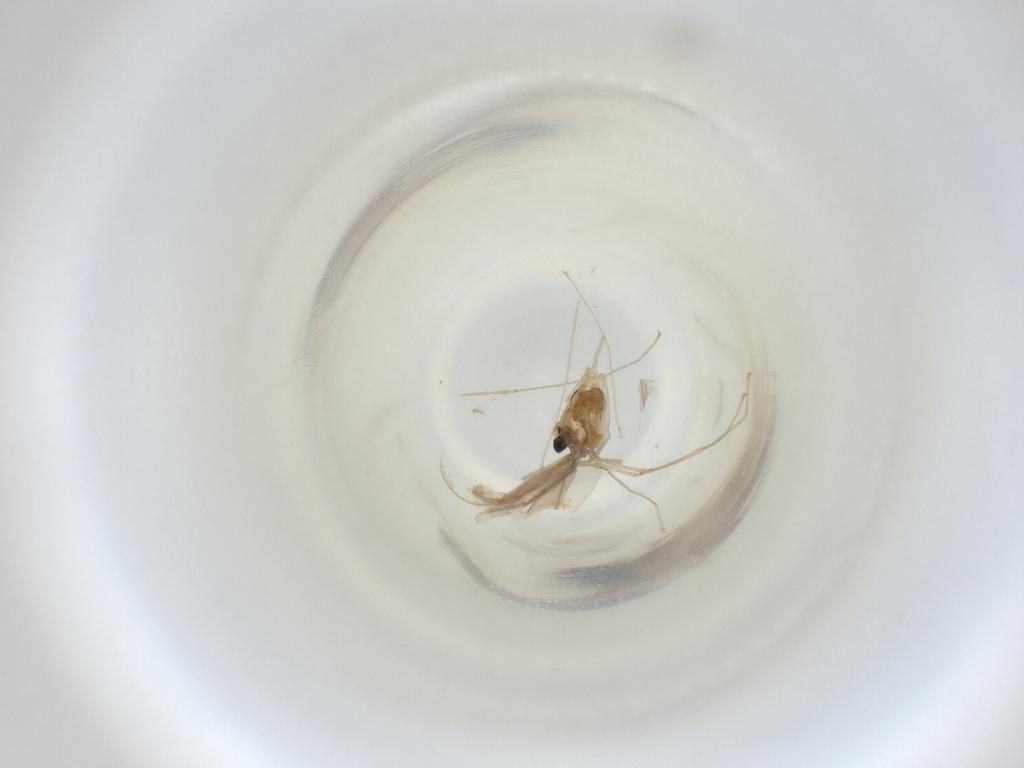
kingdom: Animalia
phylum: Arthropoda
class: Insecta
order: Diptera
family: Cecidomyiidae
